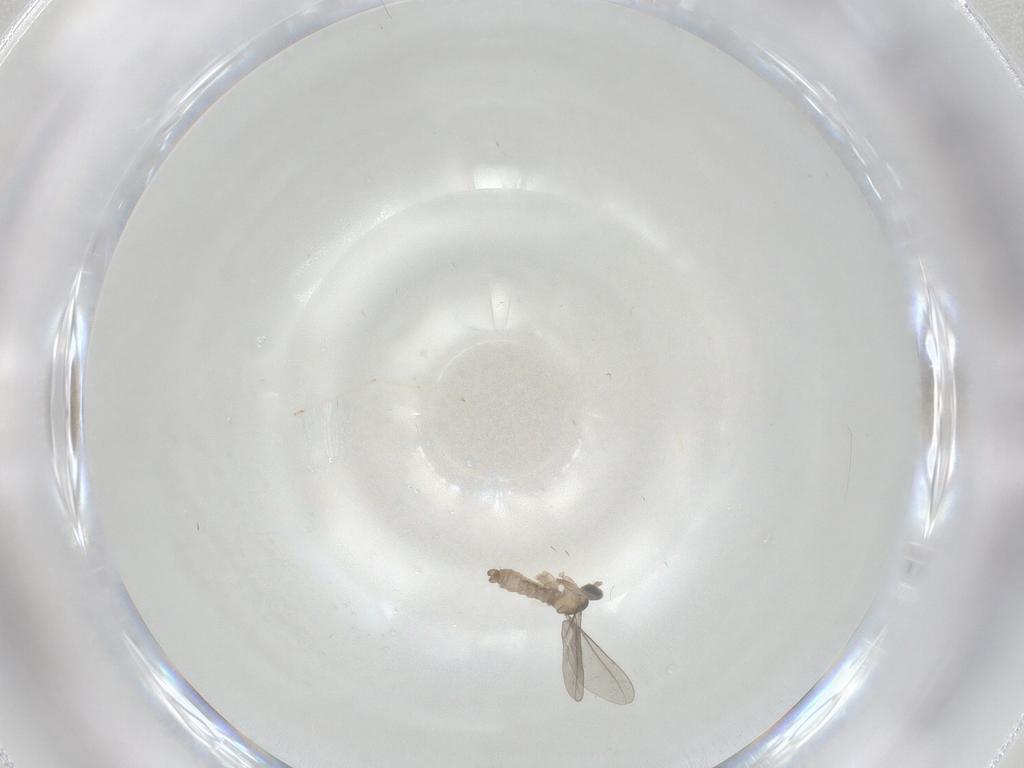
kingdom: Animalia
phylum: Arthropoda
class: Insecta
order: Diptera
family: Cecidomyiidae
